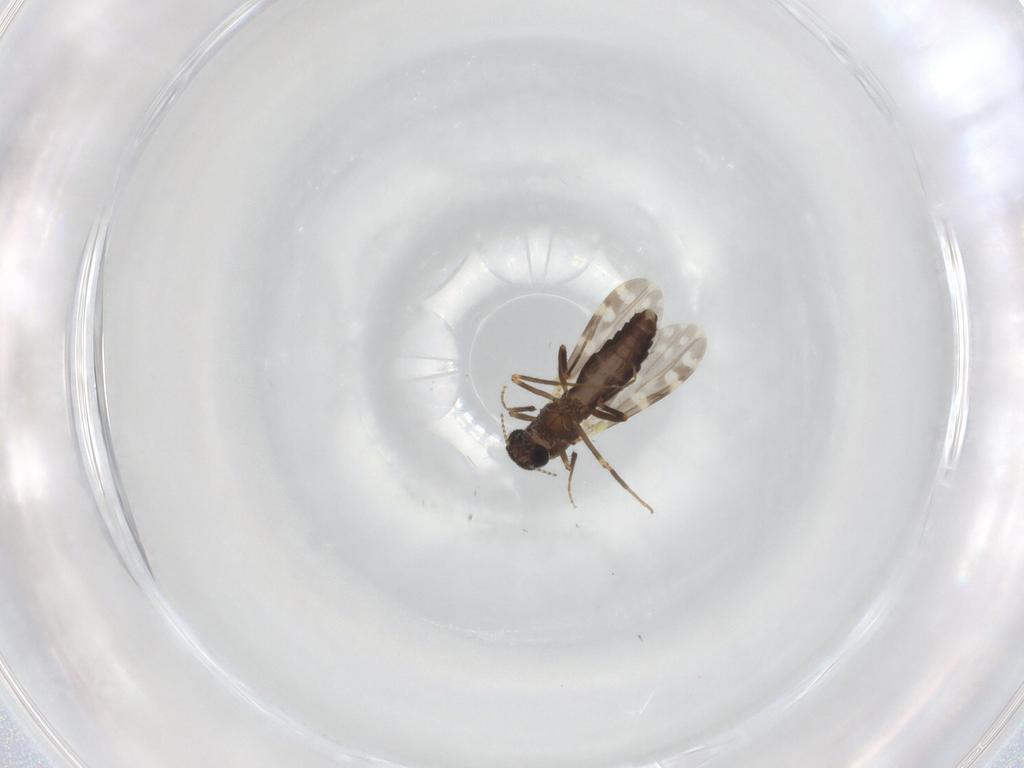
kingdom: Animalia
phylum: Arthropoda
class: Insecta
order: Diptera
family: Ceratopogonidae
